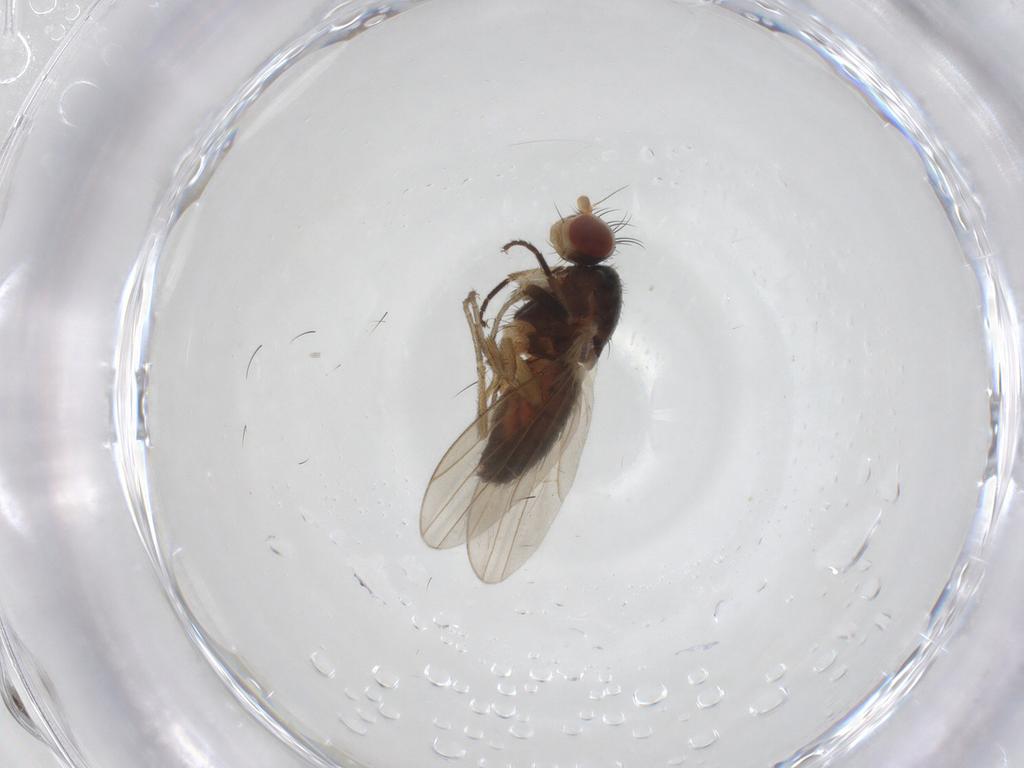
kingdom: Animalia
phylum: Arthropoda
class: Insecta
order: Diptera
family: Heleomyzidae
